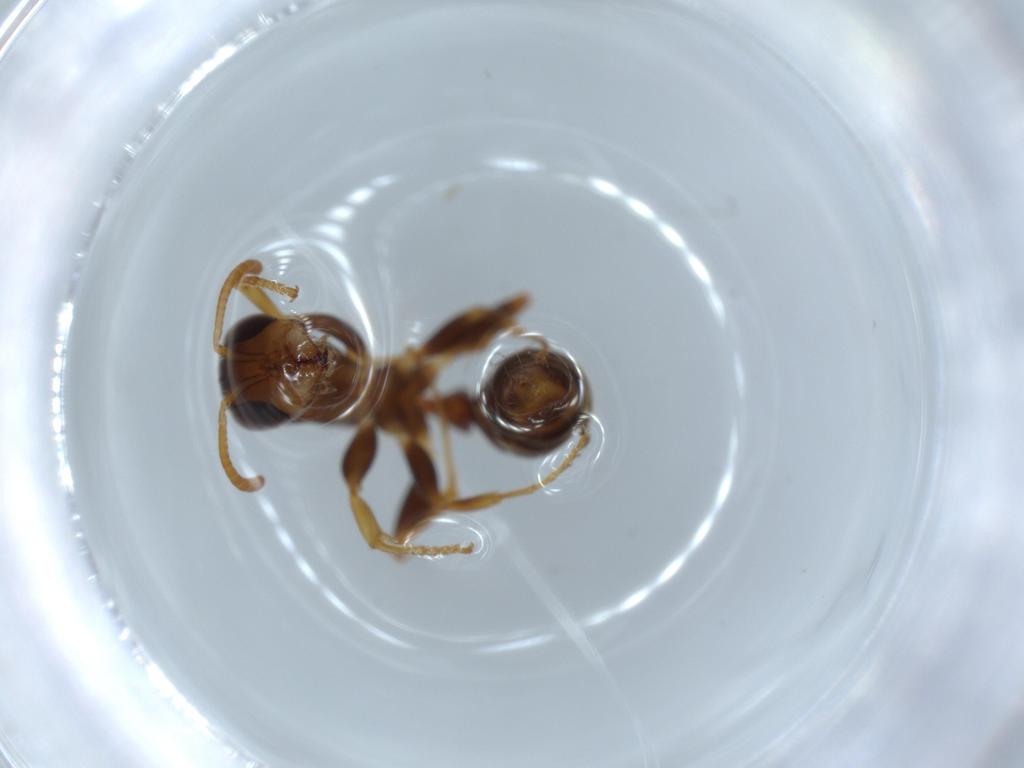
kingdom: Animalia
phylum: Arthropoda
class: Insecta
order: Hymenoptera
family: Formicidae
